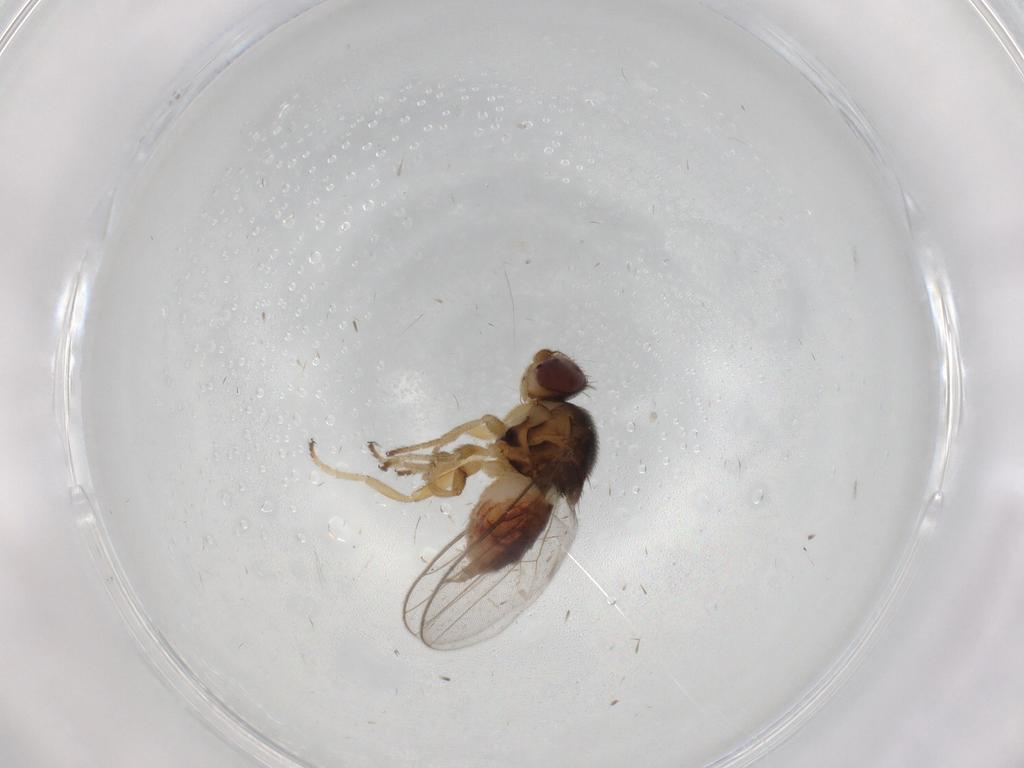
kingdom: Animalia
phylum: Arthropoda
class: Insecta
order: Diptera
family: Chloropidae
